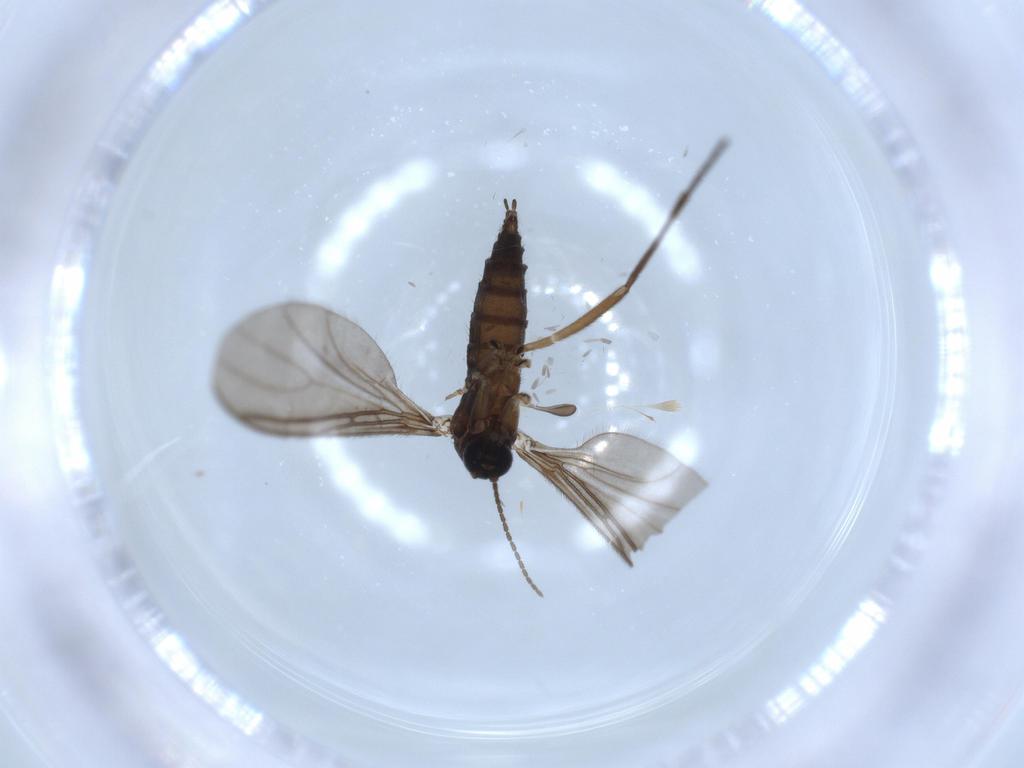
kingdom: Animalia
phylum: Arthropoda
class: Insecta
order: Diptera
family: Sciaridae
